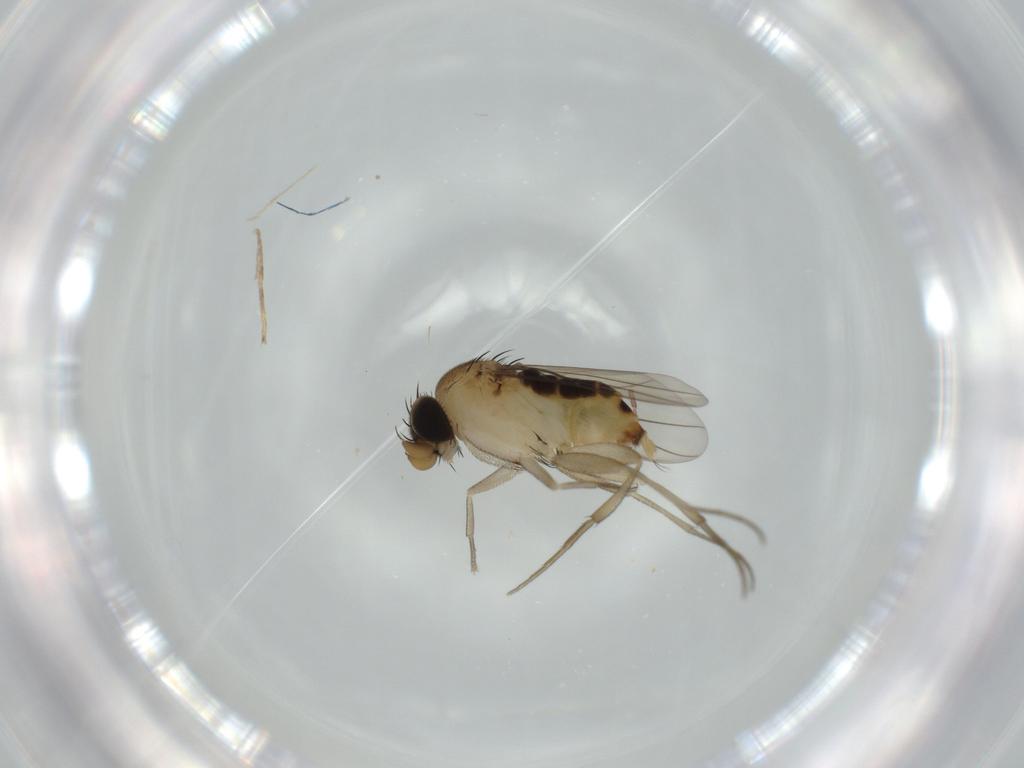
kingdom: Animalia
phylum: Arthropoda
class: Insecta
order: Diptera
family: Phoridae
